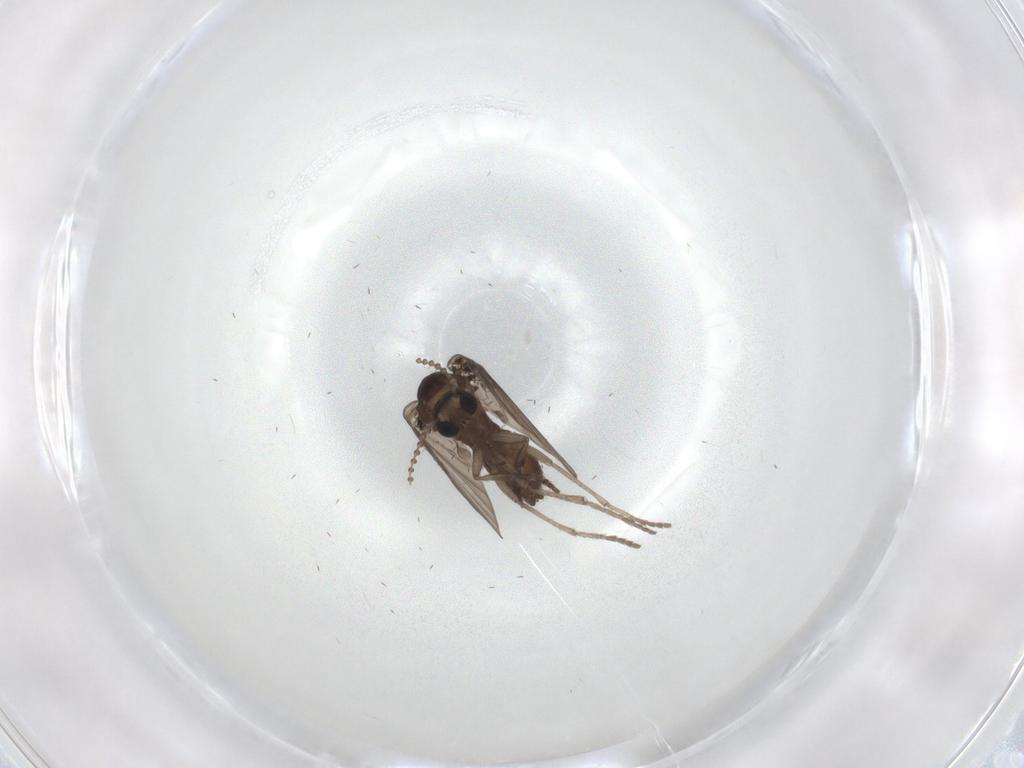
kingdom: Animalia
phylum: Arthropoda
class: Insecta
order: Diptera
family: Psychodidae
